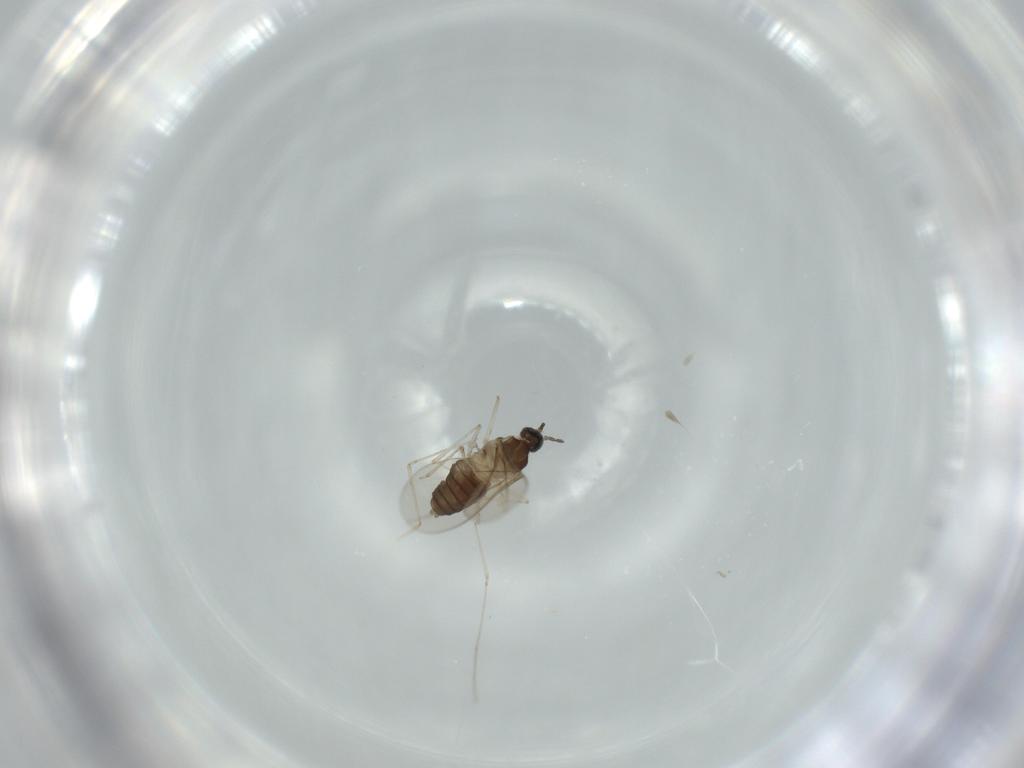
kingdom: Animalia
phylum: Arthropoda
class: Insecta
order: Diptera
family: Cecidomyiidae
